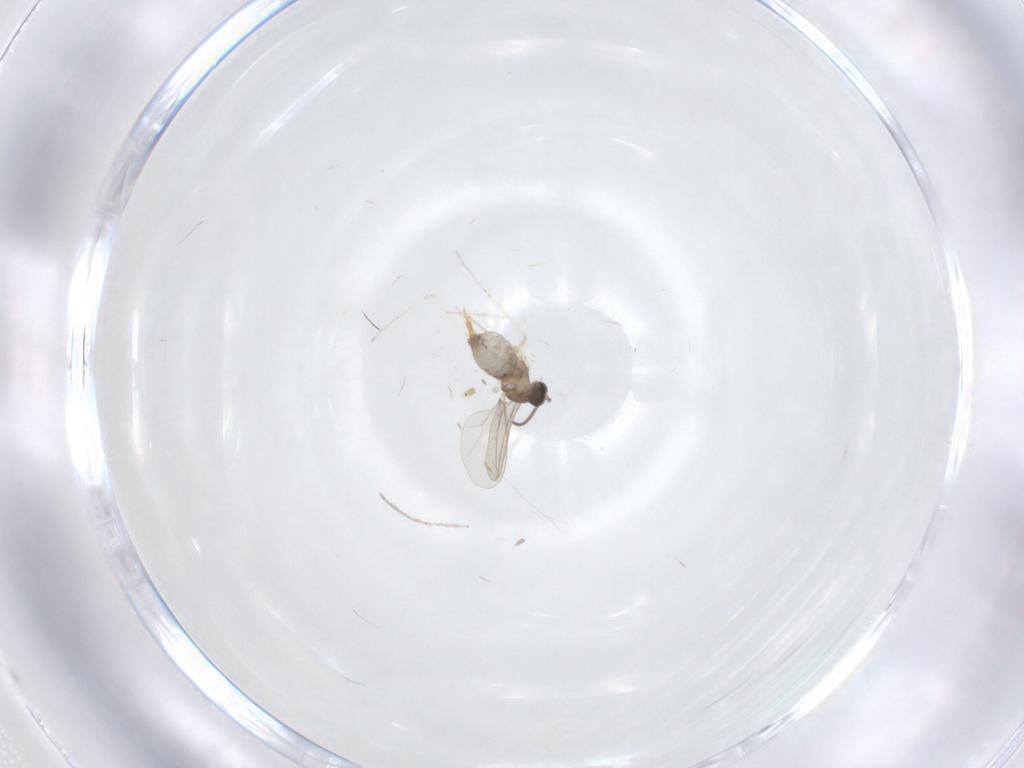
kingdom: Animalia
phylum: Arthropoda
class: Insecta
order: Diptera
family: Cecidomyiidae
